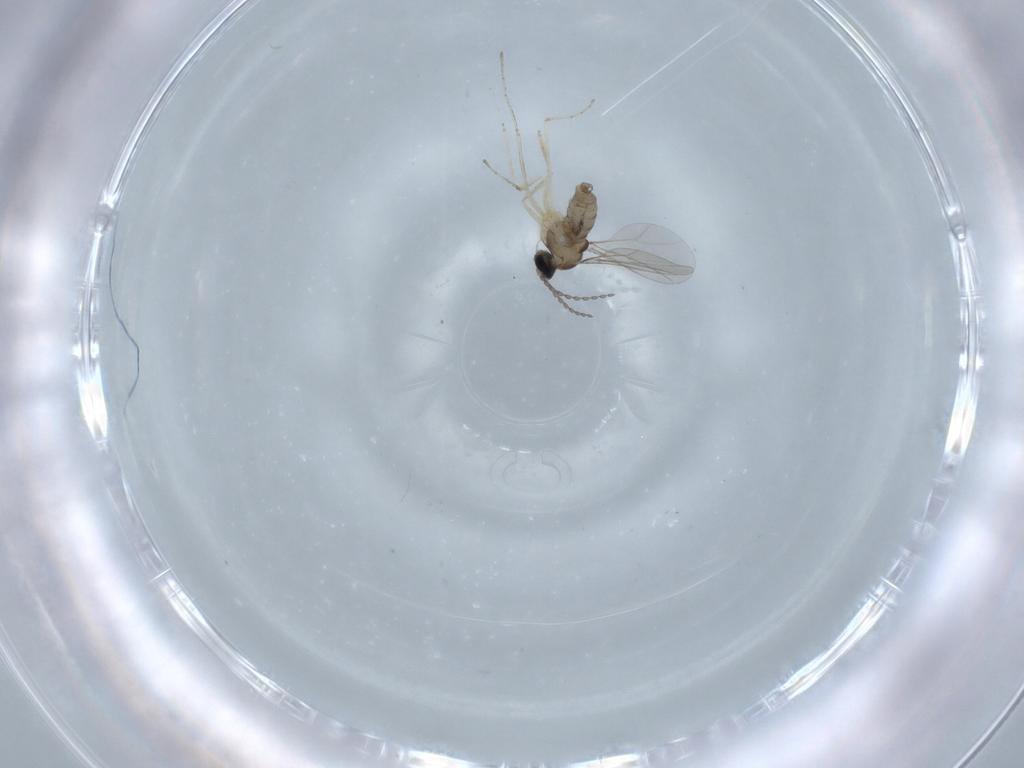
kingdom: Animalia
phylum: Arthropoda
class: Insecta
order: Diptera
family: Cecidomyiidae
